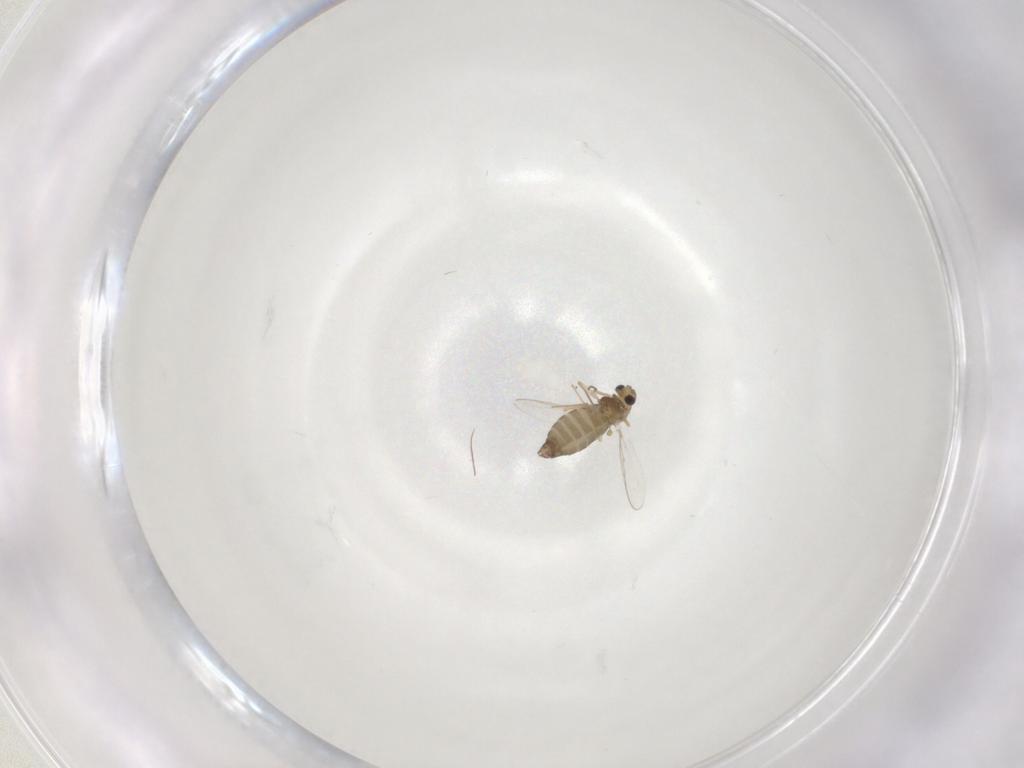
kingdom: Animalia
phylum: Arthropoda
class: Insecta
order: Diptera
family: Chironomidae
